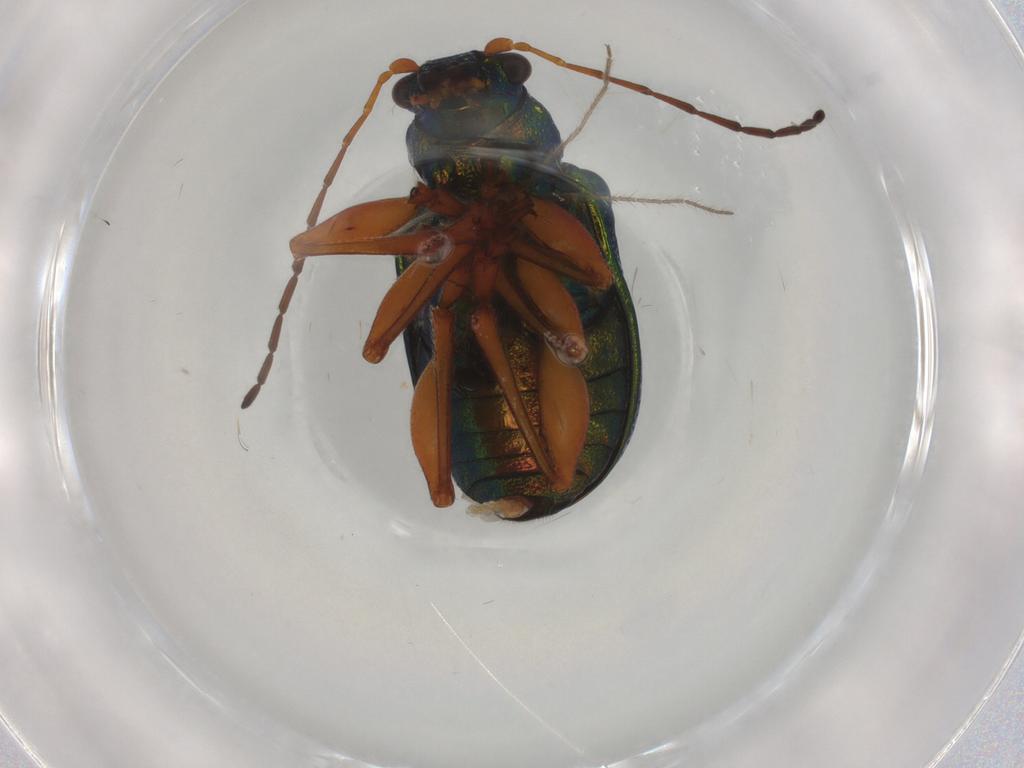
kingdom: Animalia
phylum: Arthropoda
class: Insecta
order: Coleoptera
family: Chrysomelidae
